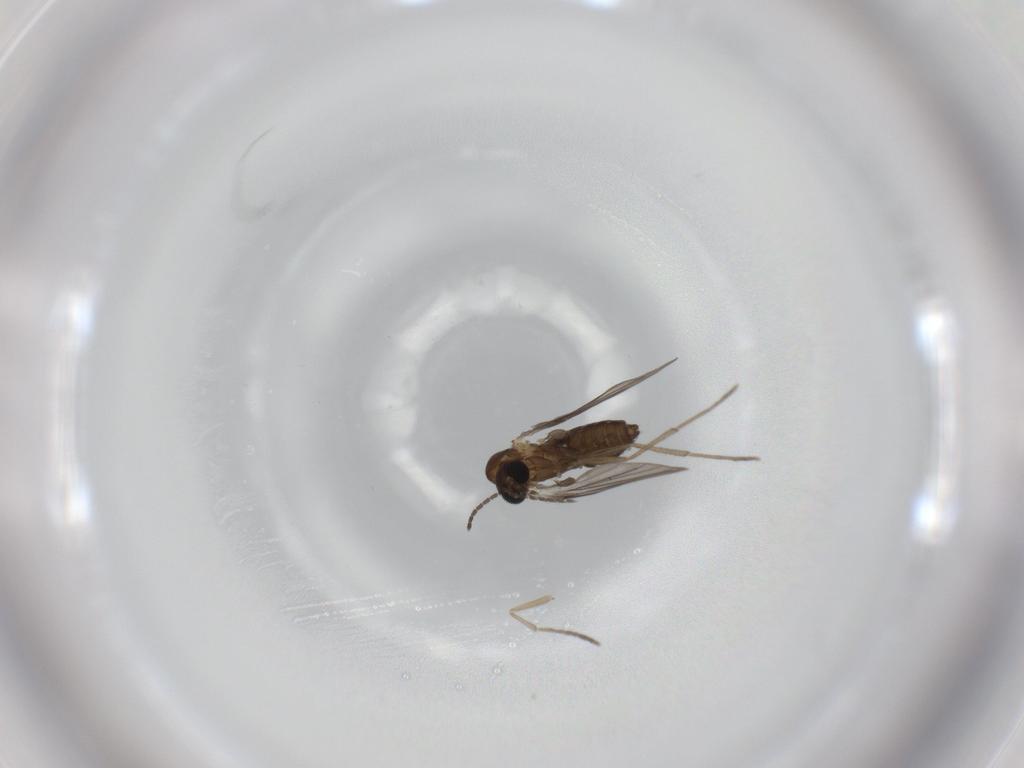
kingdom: Animalia
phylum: Arthropoda
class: Insecta
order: Diptera
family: Psychodidae
